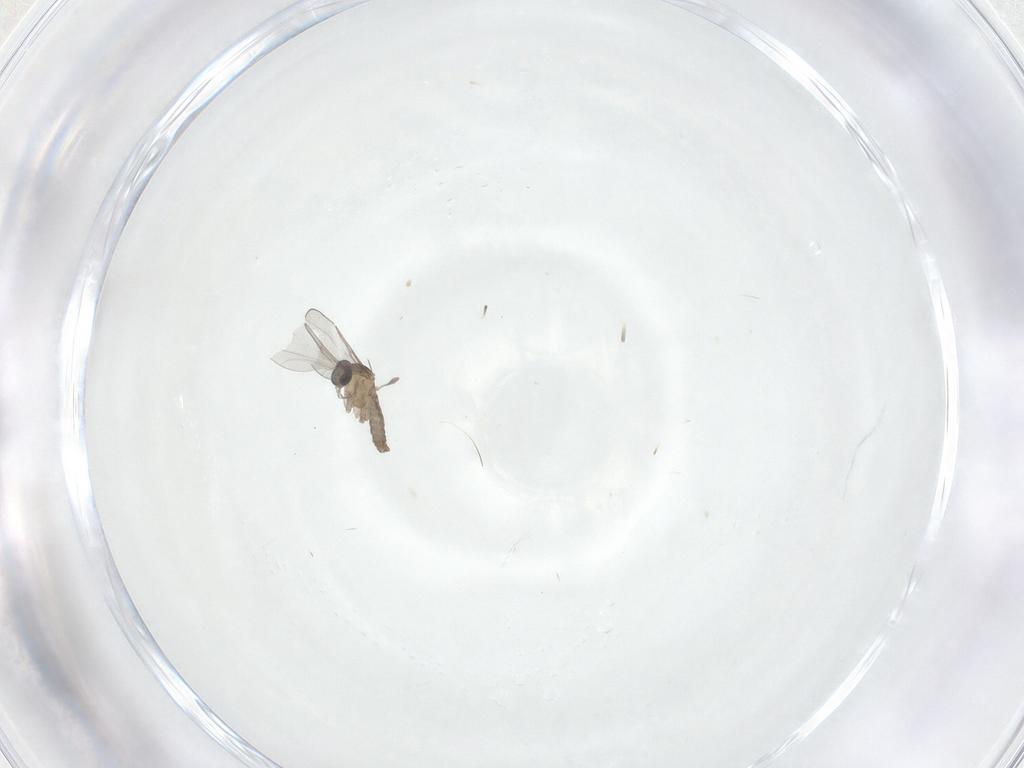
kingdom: Animalia
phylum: Arthropoda
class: Insecta
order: Diptera
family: Cecidomyiidae
